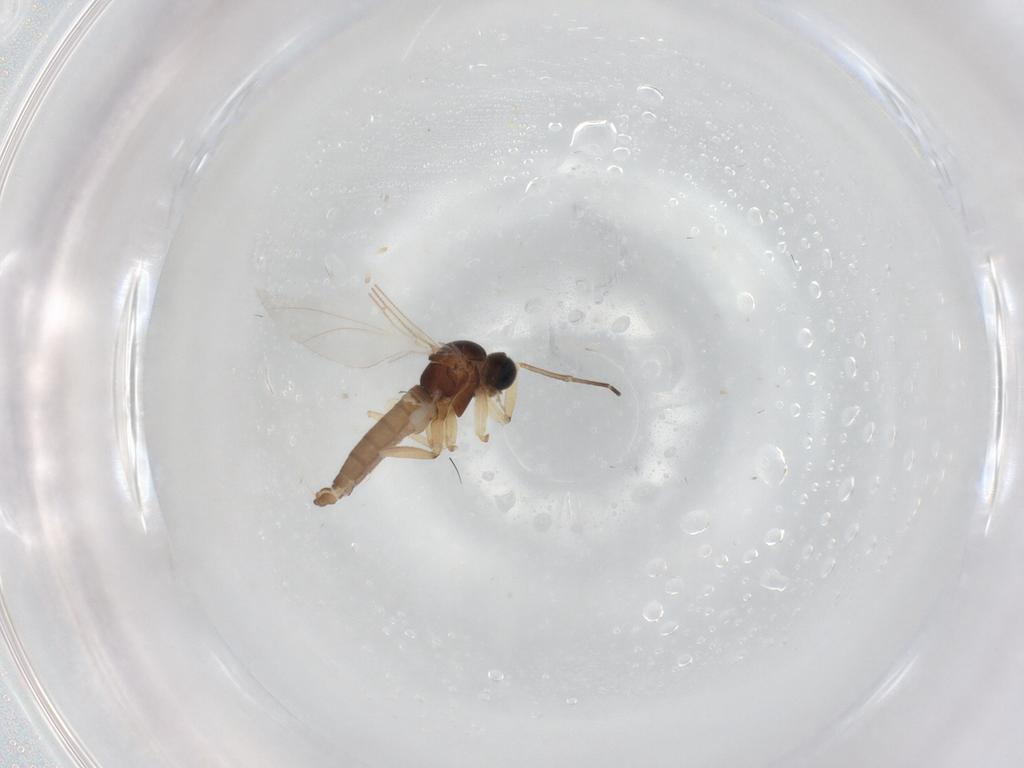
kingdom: Animalia
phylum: Arthropoda
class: Insecta
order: Diptera
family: Sciaridae
